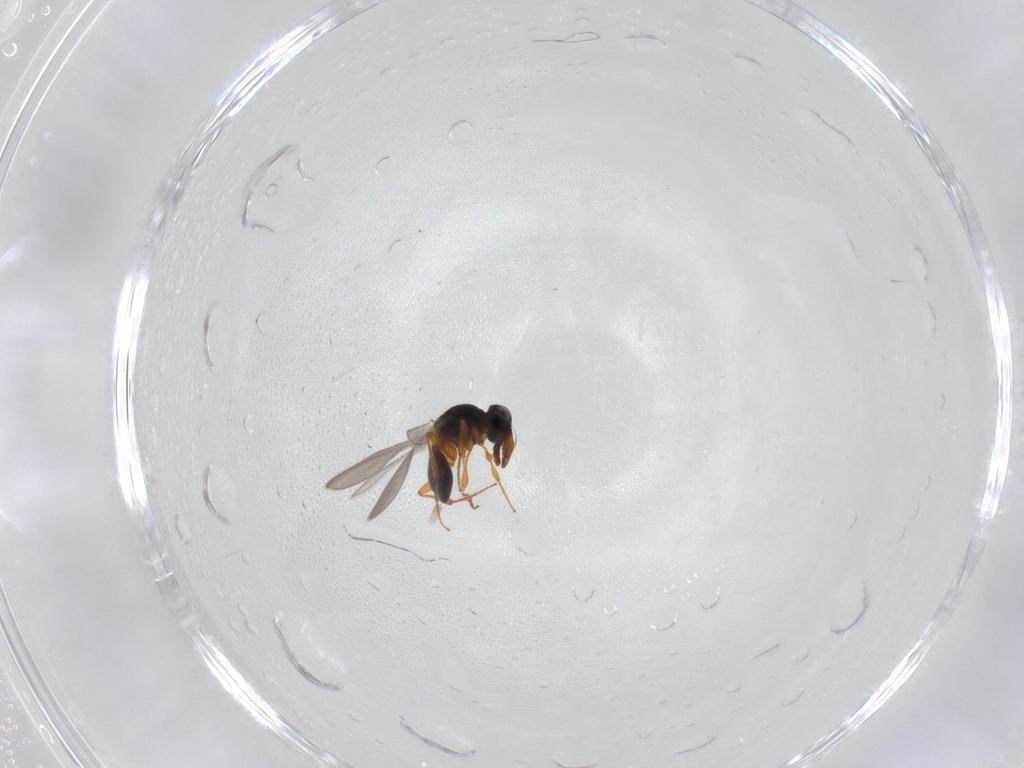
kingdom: Animalia
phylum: Arthropoda
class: Insecta
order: Hymenoptera
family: Platygastridae
